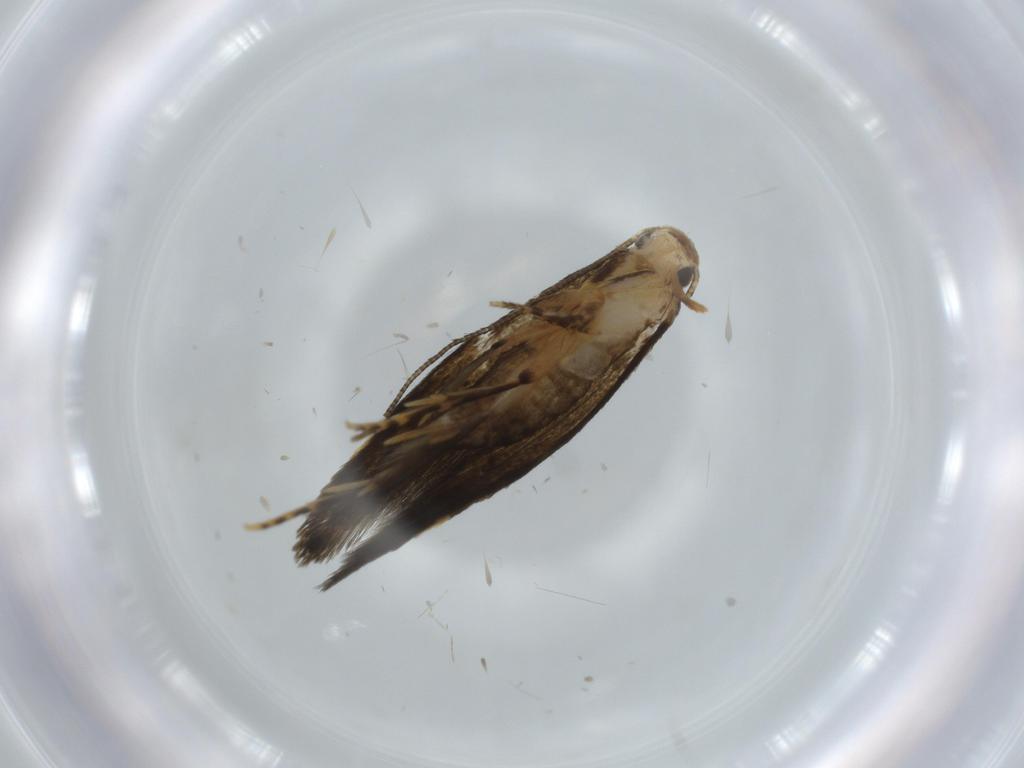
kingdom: Animalia
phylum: Arthropoda
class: Insecta
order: Lepidoptera
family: Tineidae
